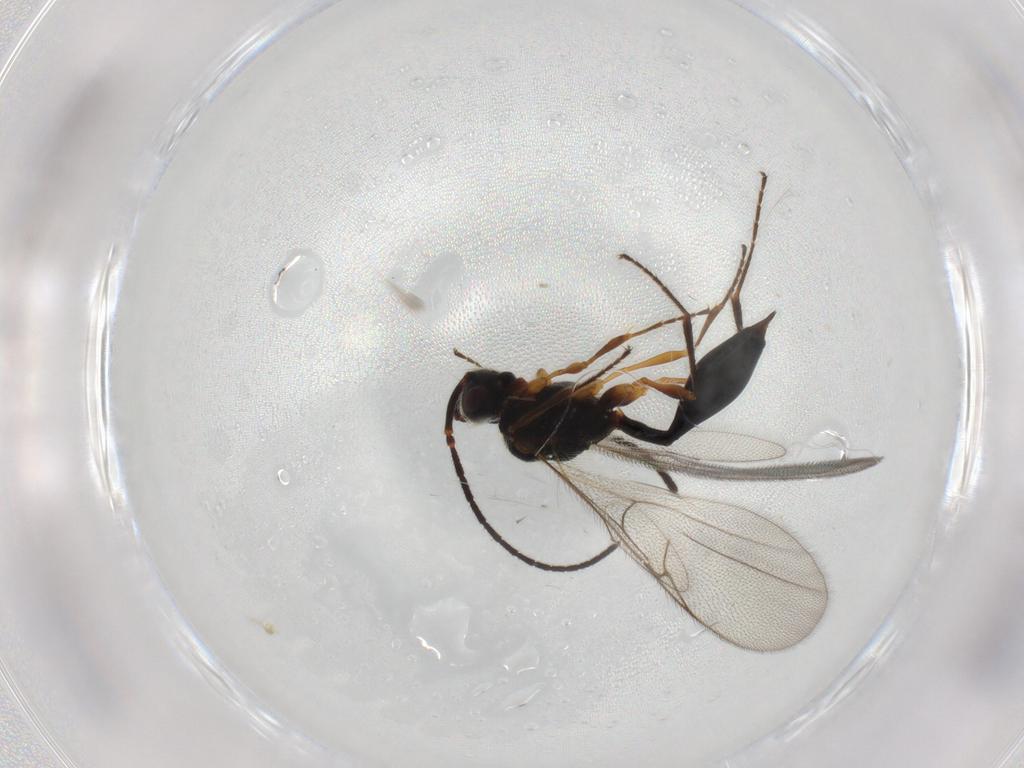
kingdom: Animalia
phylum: Arthropoda
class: Insecta
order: Hymenoptera
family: Diapriidae
